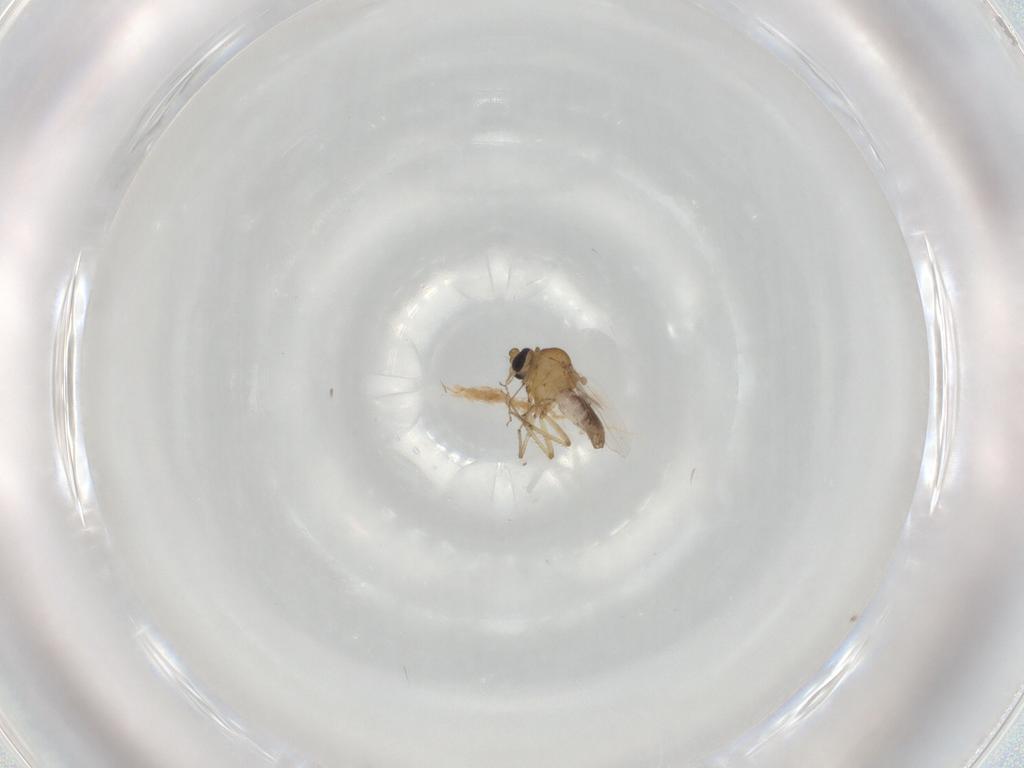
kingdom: Animalia
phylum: Arthropoda
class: Insecta
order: Diptera
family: Ceratopogonidae
